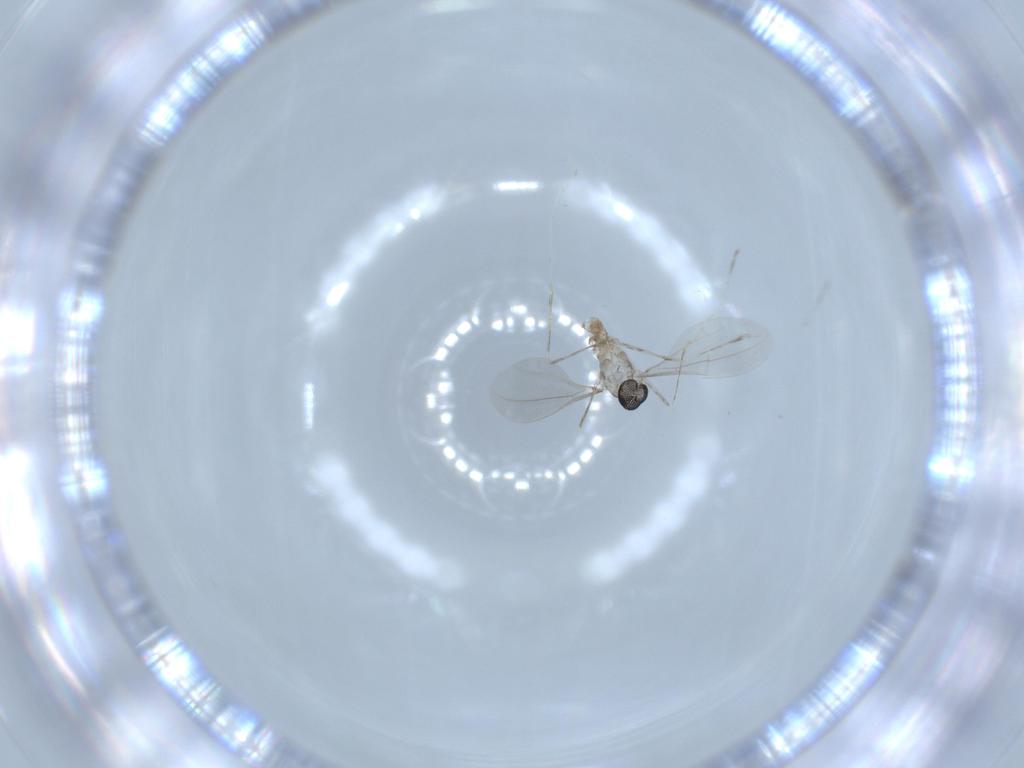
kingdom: Animalia
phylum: Arthropoda
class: Insecta
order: Diptera
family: Cecidomyiidae
